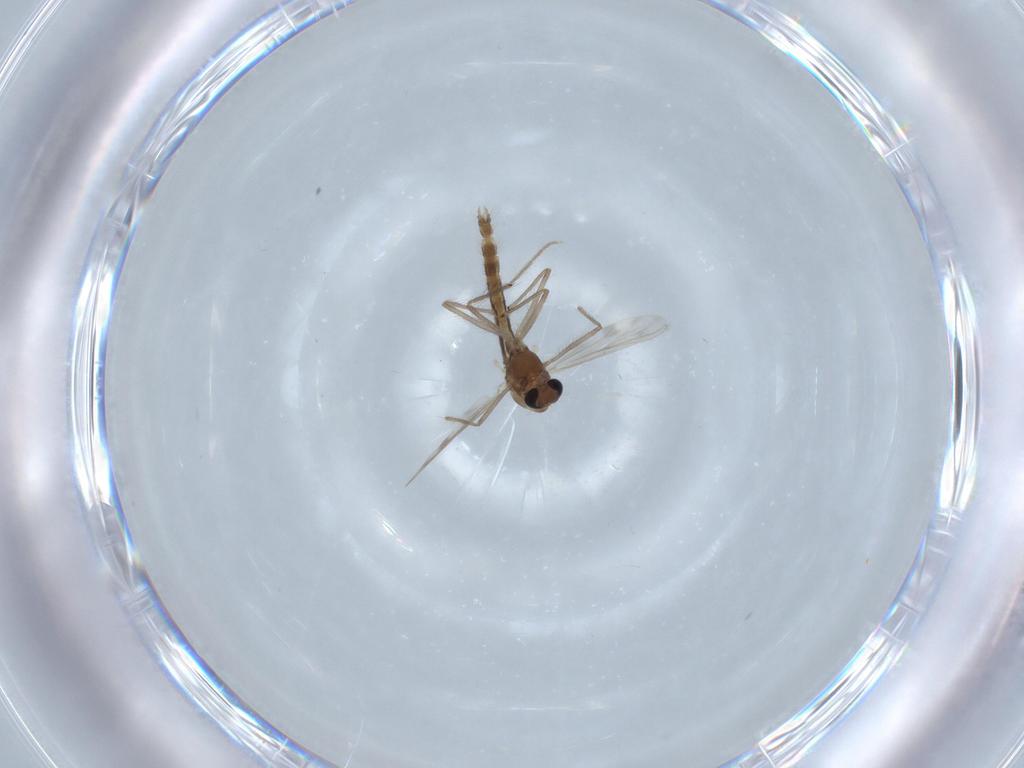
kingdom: Animalia
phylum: Arthropoda
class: Insecta
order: Diptera
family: Chironomidae
